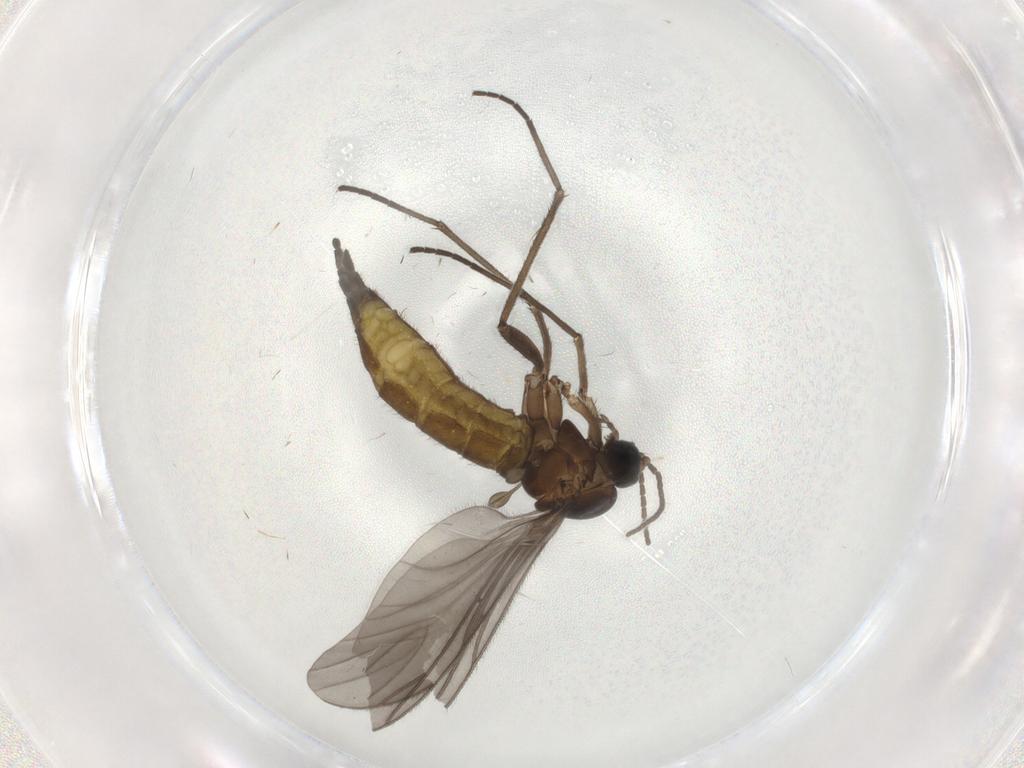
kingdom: Animalia
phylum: Arthropoda
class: Insecta
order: Diptera
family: Sciaridae
